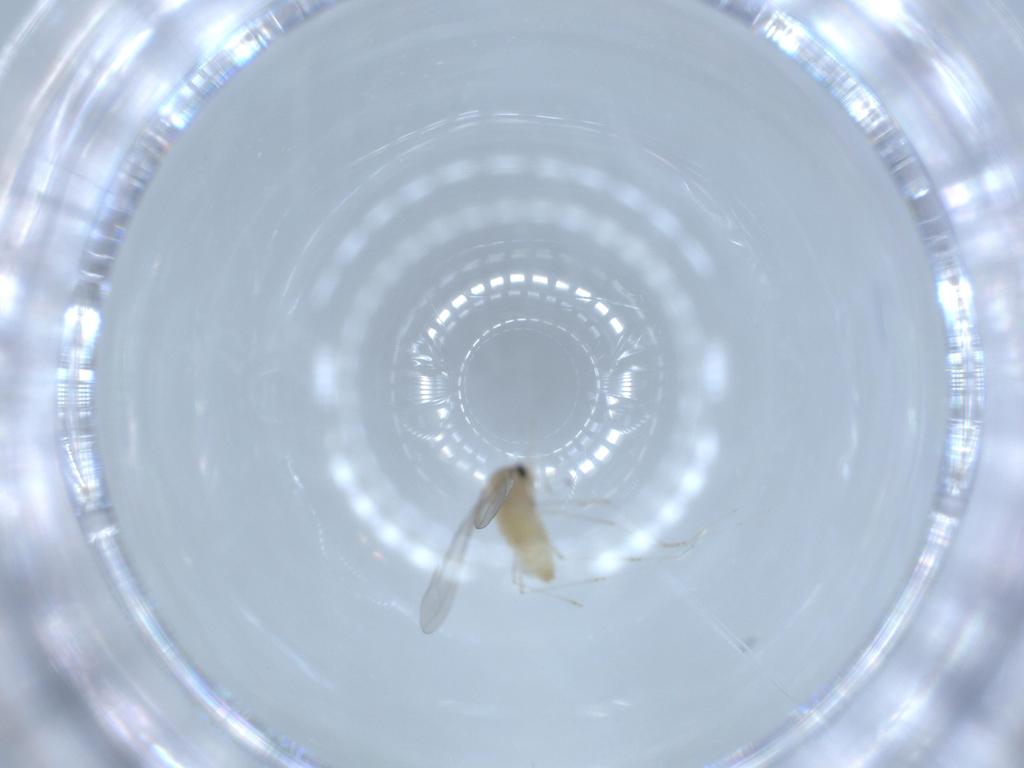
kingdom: Animalia
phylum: Arthropoda
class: Insecta
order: Diptera
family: Cecidomyiidae
